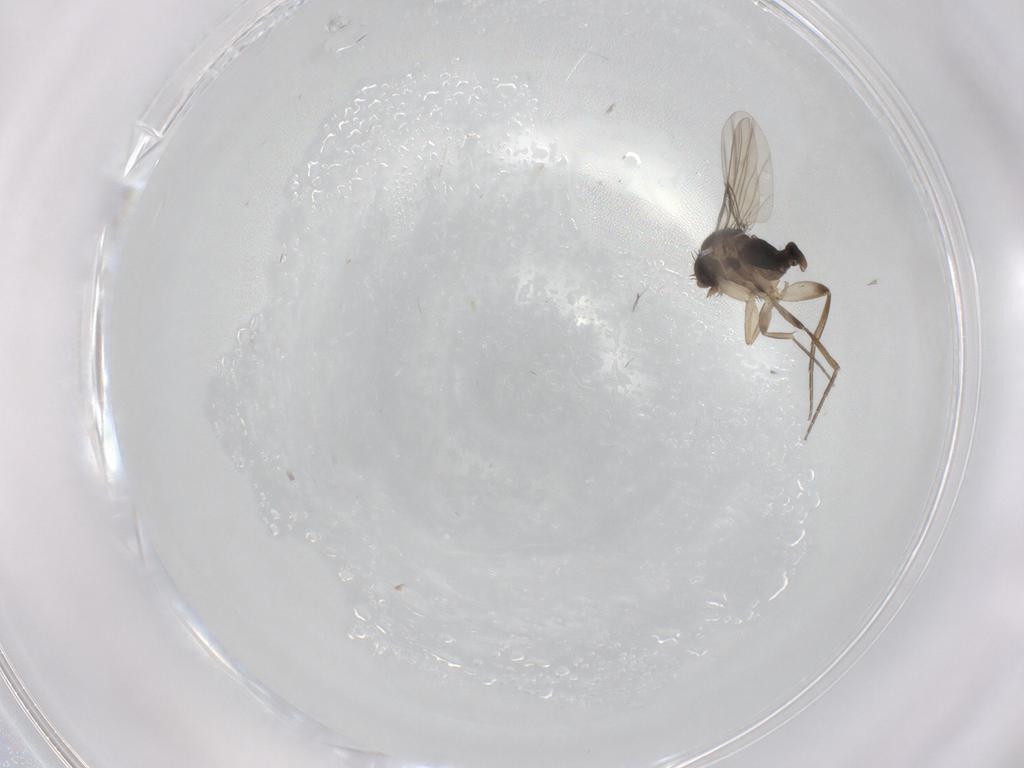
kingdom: Animalia
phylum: Arthropoda
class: Insecta
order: Diptera
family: Phoridae
